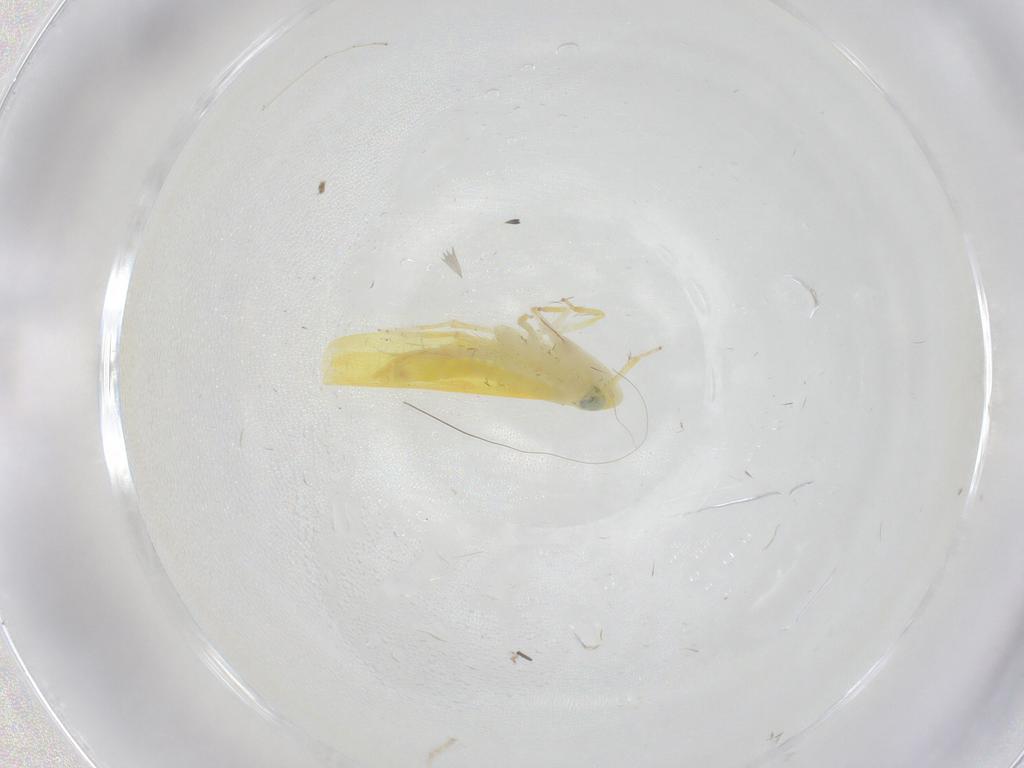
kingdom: Animalia
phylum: Arthropoda
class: Insecta
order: Hemiptera
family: Cicadellidae
